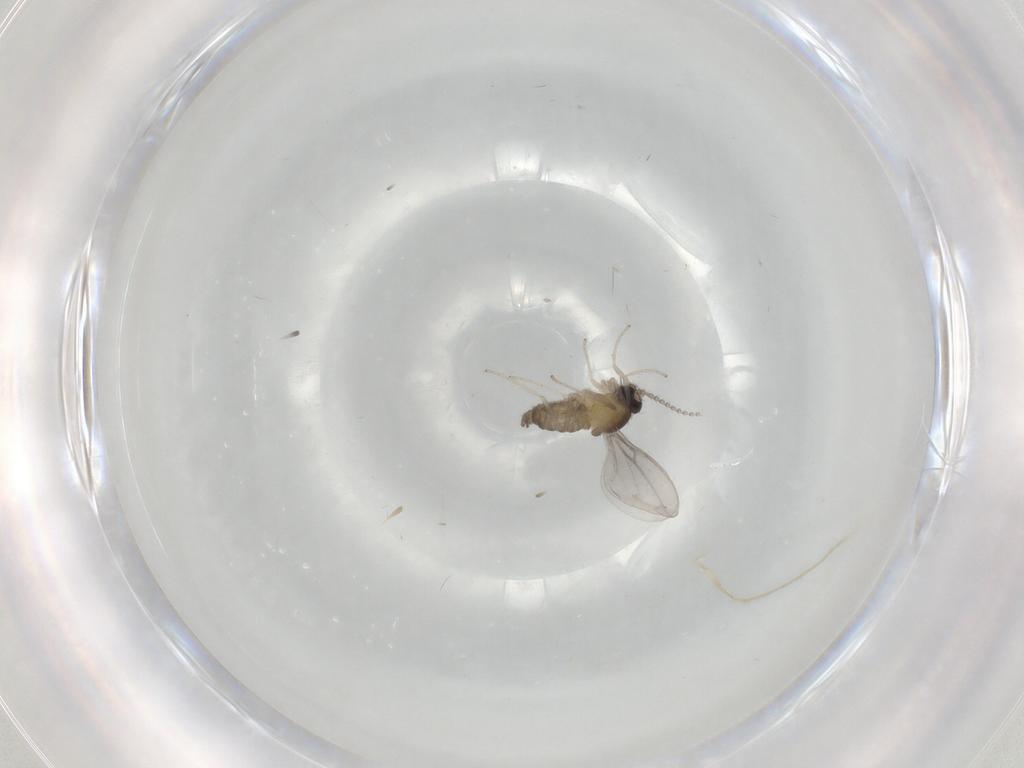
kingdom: Animalia
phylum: Arthropoda
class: Insecta
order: Diptera
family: Cecidomyiidae
